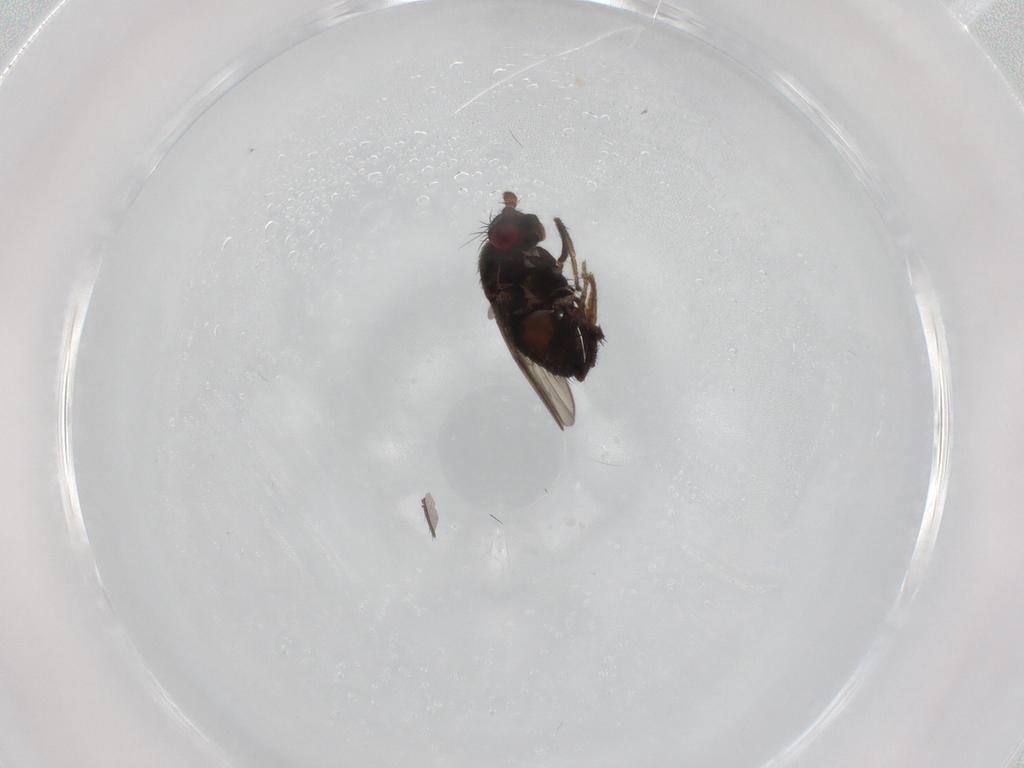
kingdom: Animalia
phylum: Arthropoda
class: Insecta
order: Diptera
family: Sphaeroceridae
